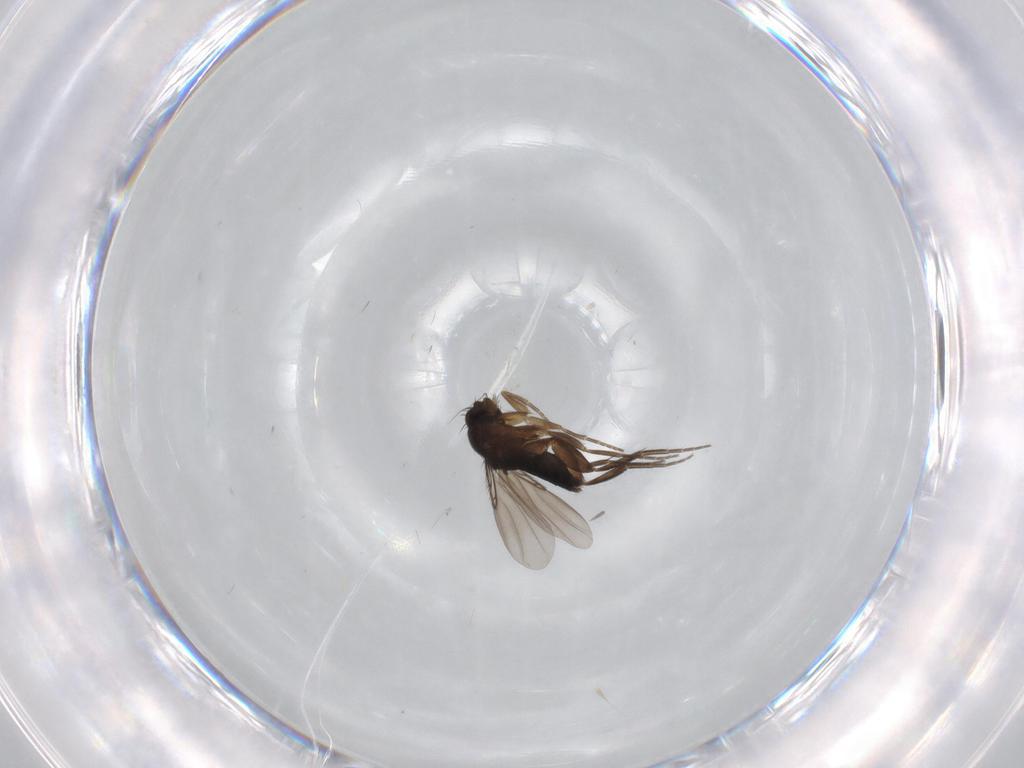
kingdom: Animalia
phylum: Arthropoda
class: Insecta
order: Diptera
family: Phoridae
